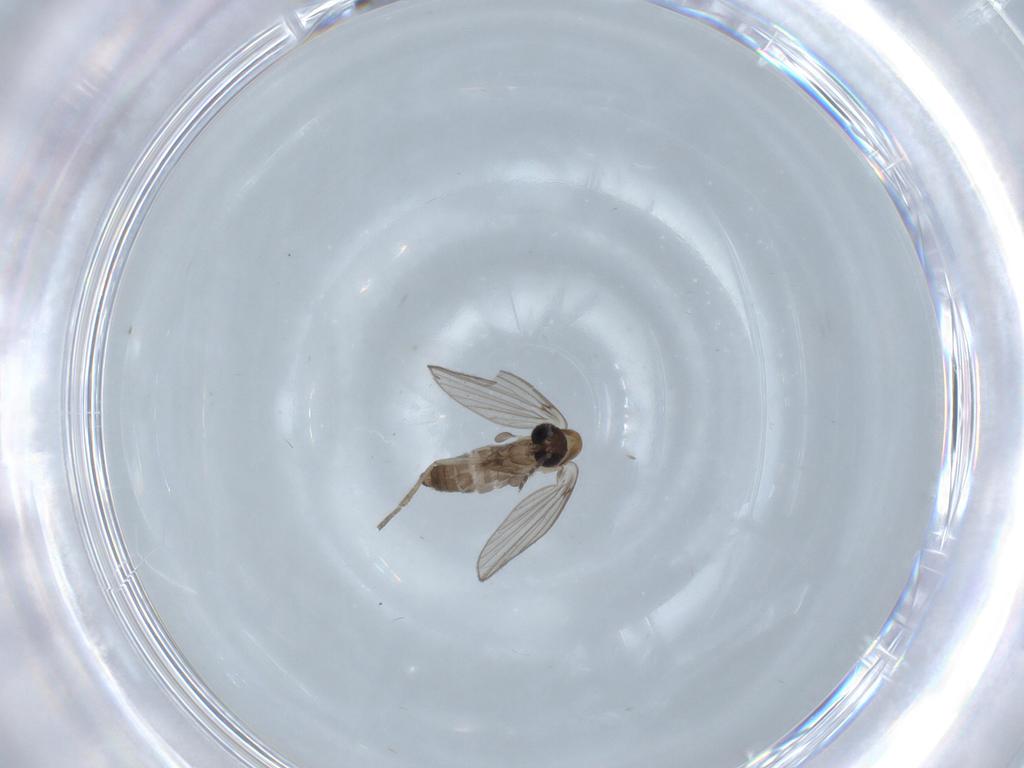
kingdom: Animalia
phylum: Arthropoda
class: Insecta
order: Diptera
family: Psychodidae
